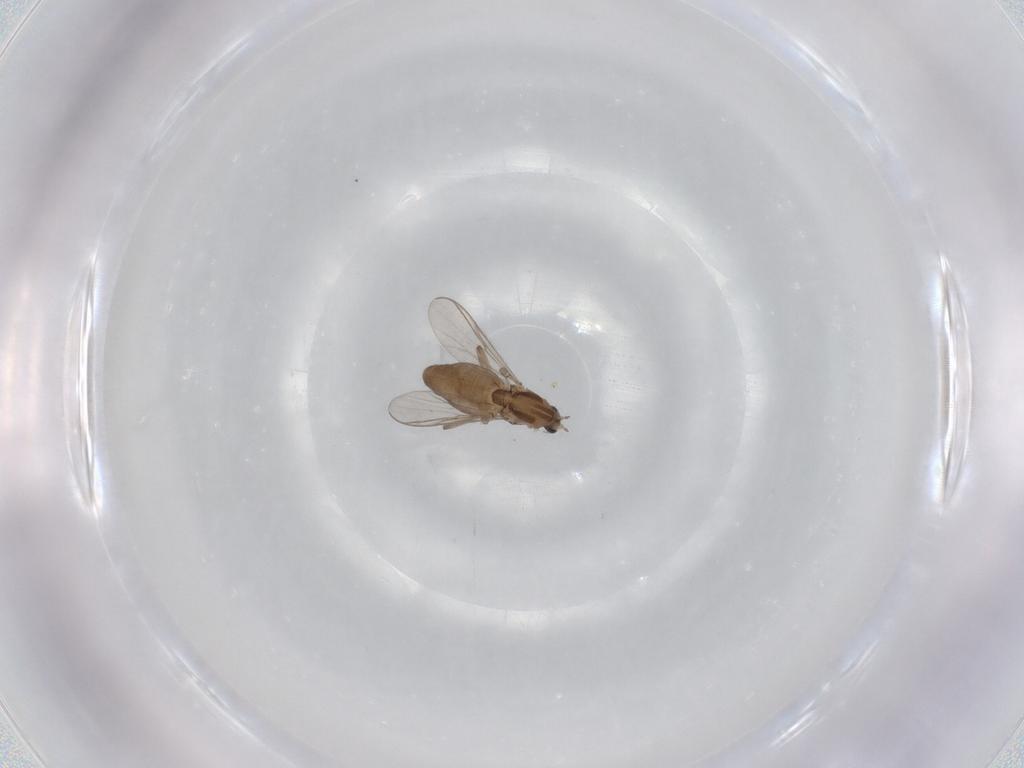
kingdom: Animalia
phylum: Arthropoda
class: Insecta
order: Diptera
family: Chironomidae
